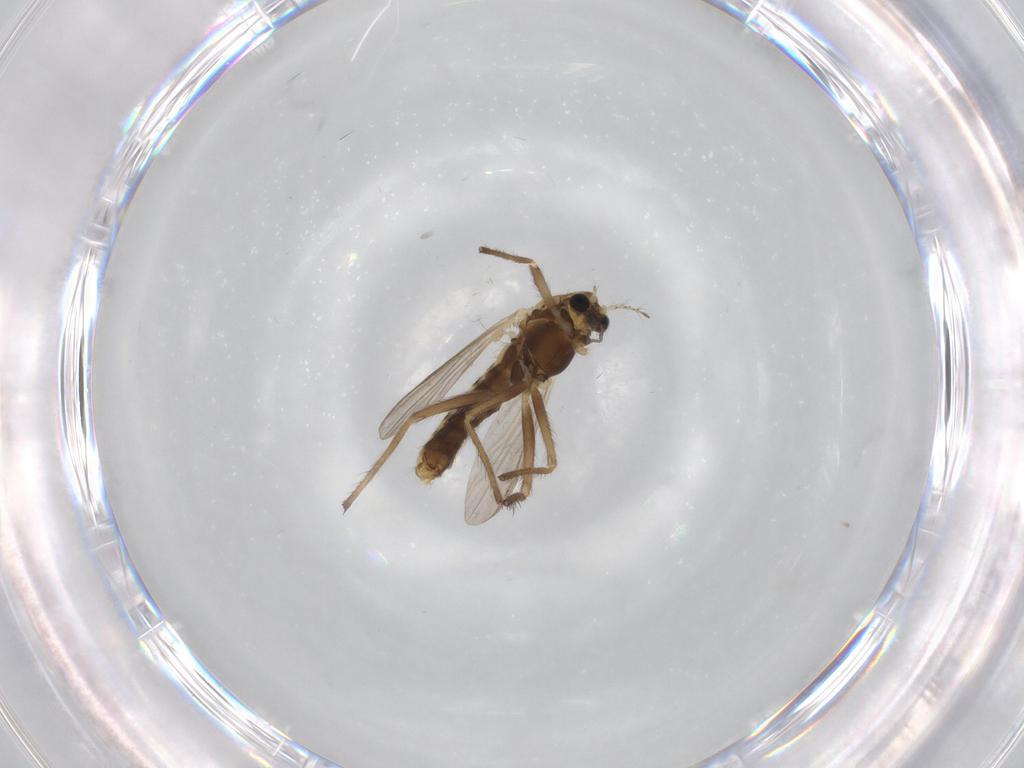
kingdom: Animalia
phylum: Arthropoda
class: Insecta
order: Diptera
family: Chironomidae
